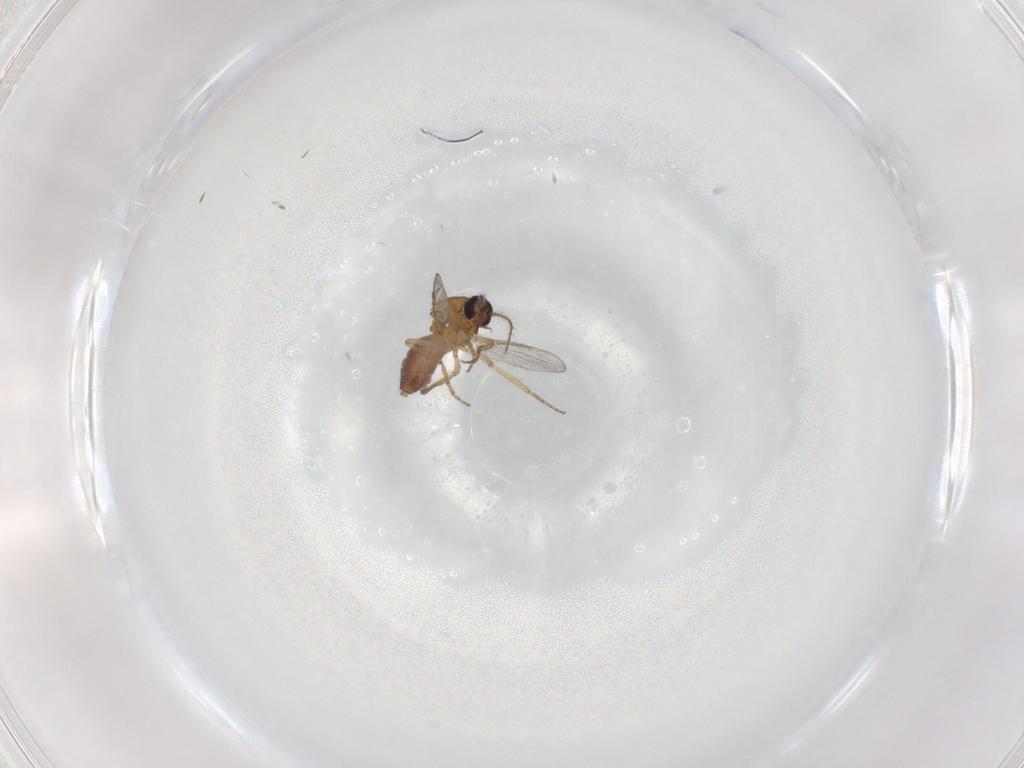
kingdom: Animalia
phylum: Arthropoda
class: Insecta
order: Diptera
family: Ceratopogonidae
